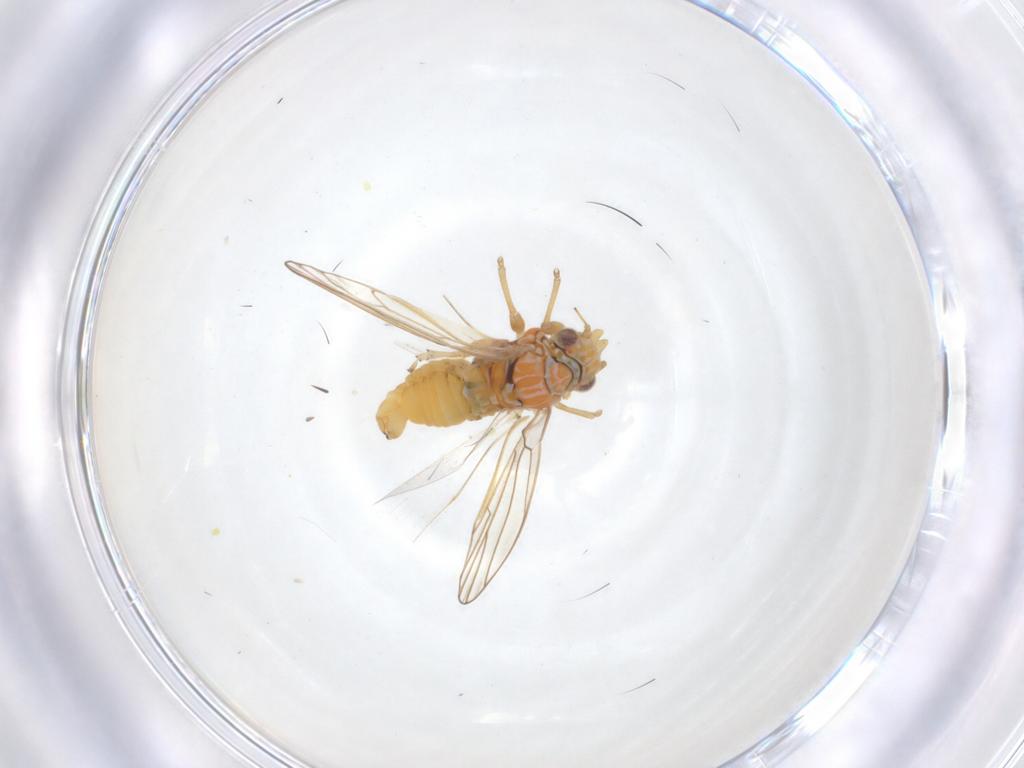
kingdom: Animalia
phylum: Arthropoda
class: Insecta
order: Diptera
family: Muscidae
